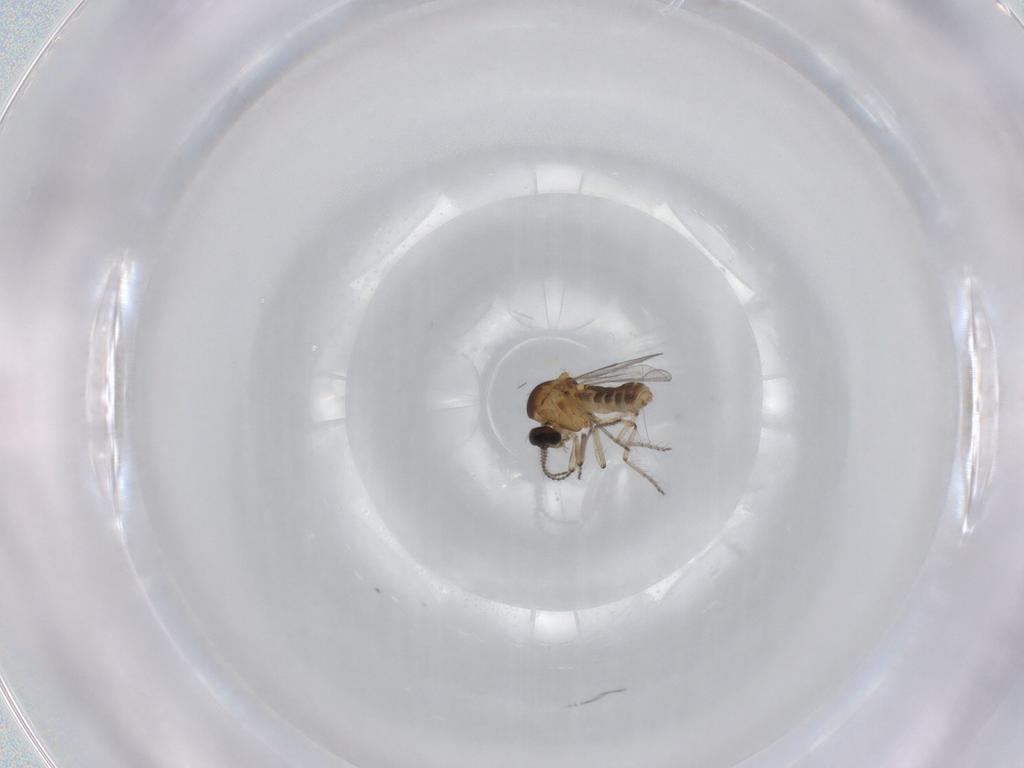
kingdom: Animalia
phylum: Arthropoda
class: Insecta
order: Diptera
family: Ceratopogonidae
